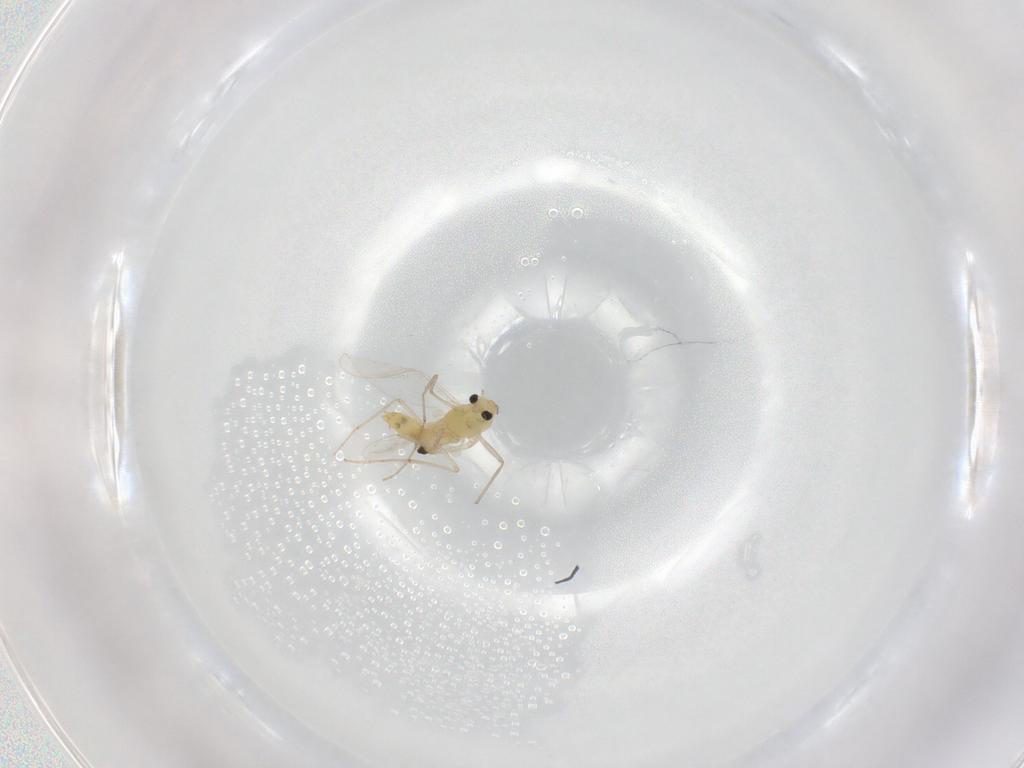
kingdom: Animalia
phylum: Arthropoda
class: Insecta
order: Diptera
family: Chironomidae
